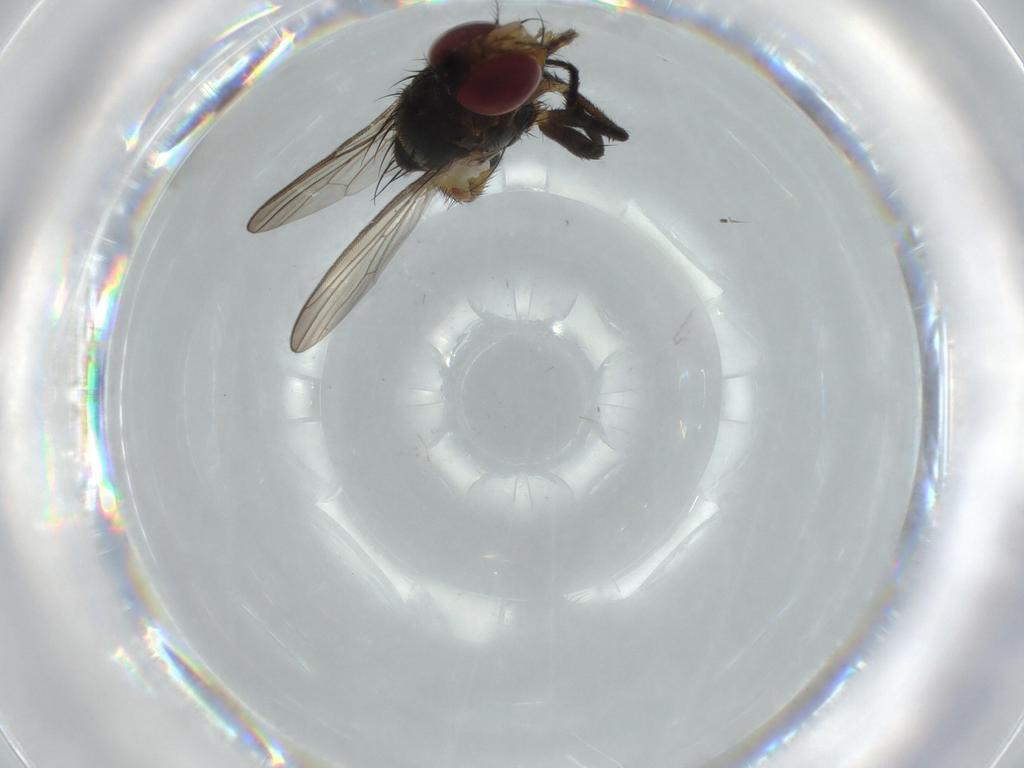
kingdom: Animalia
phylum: Arthropoda
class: Insecta
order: Diptera
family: Anthomyiidae
